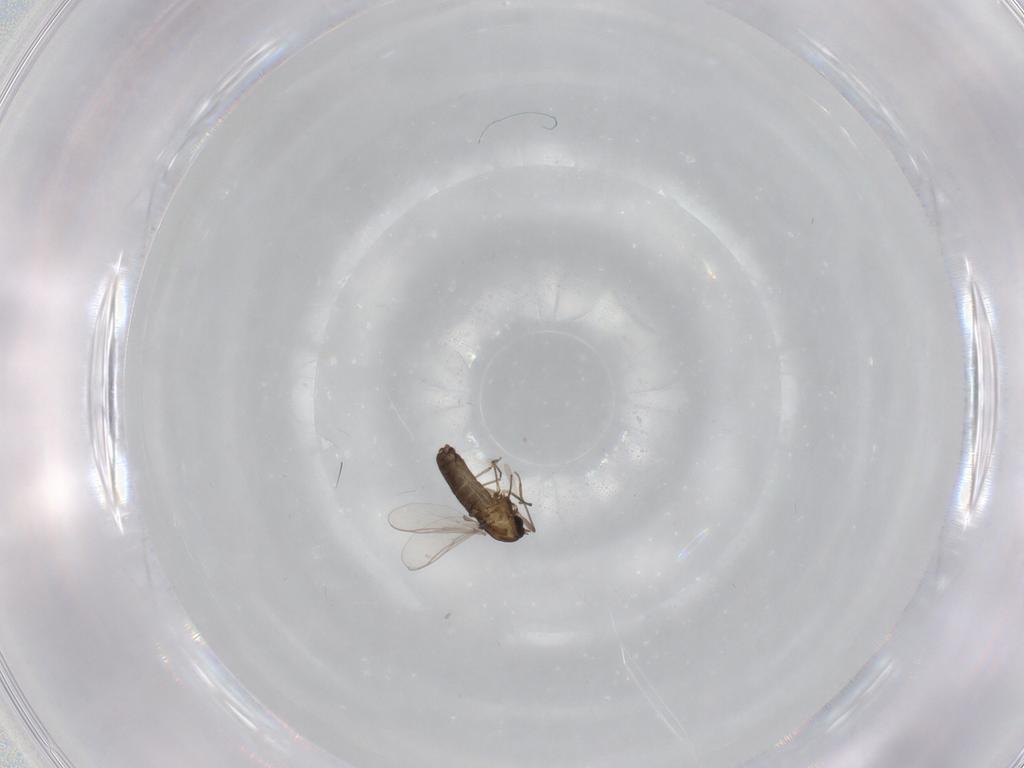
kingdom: Animalia
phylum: Arthropoda
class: Insecta
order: Diptera
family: Chironomidae
